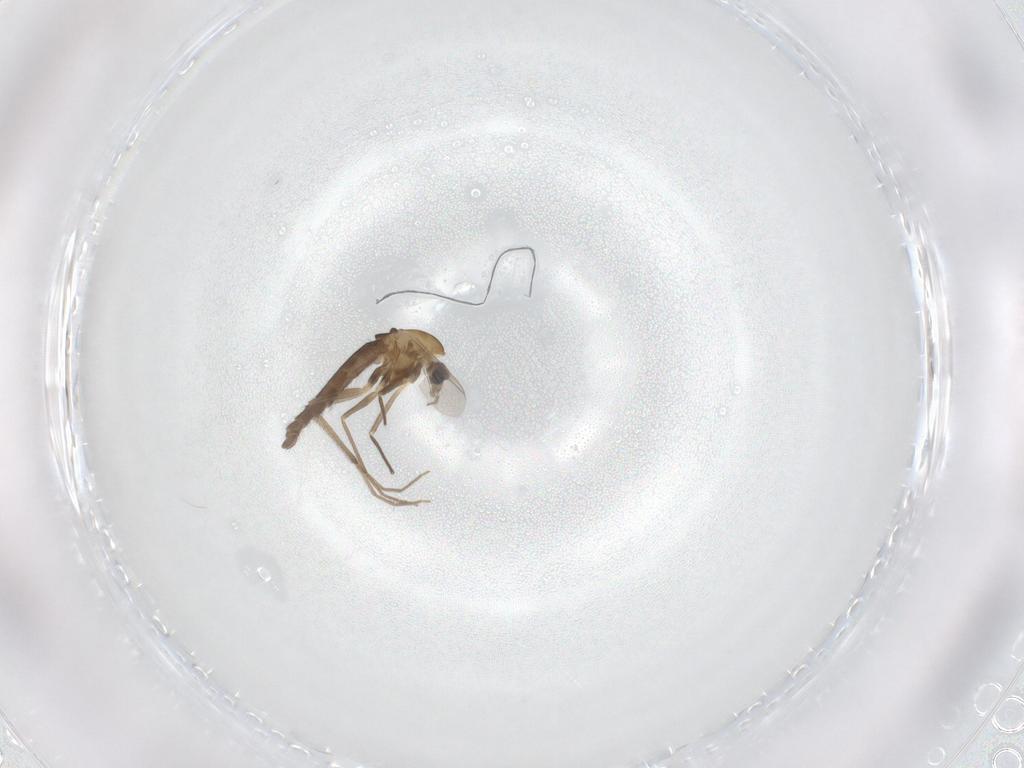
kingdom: Animalia
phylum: Arthropoda
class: Insecta
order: Diptera
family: Chironomidae
